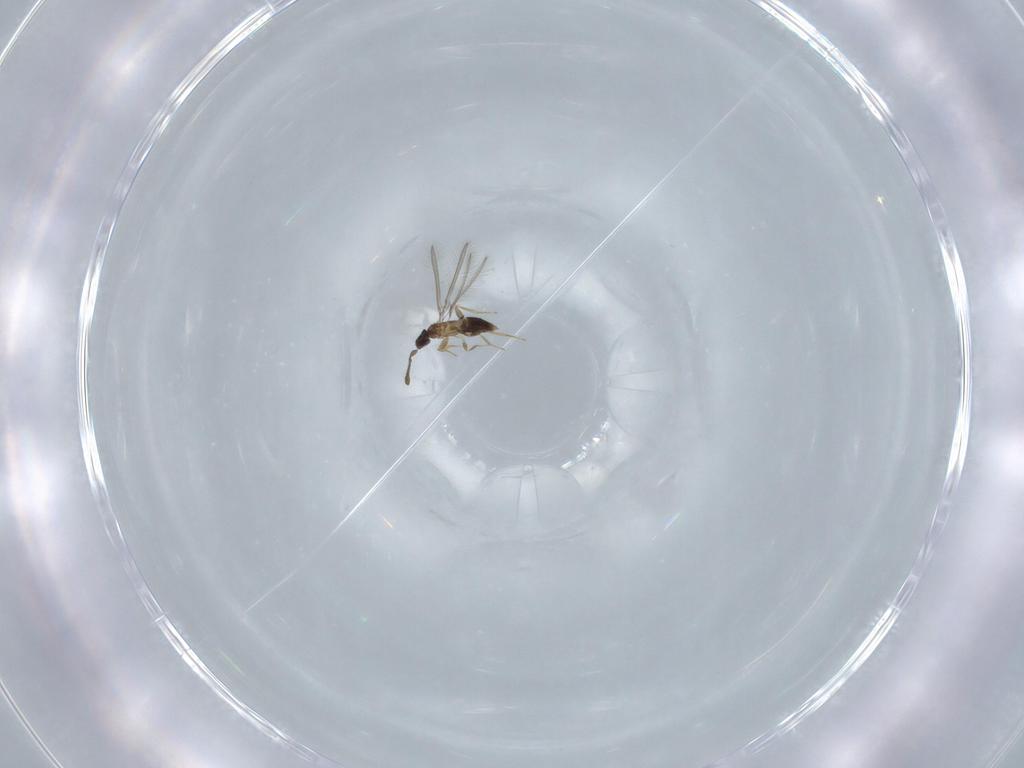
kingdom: Animalia
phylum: Arthropoda
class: Insecta
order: Hymenoptera
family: Mymaridae
